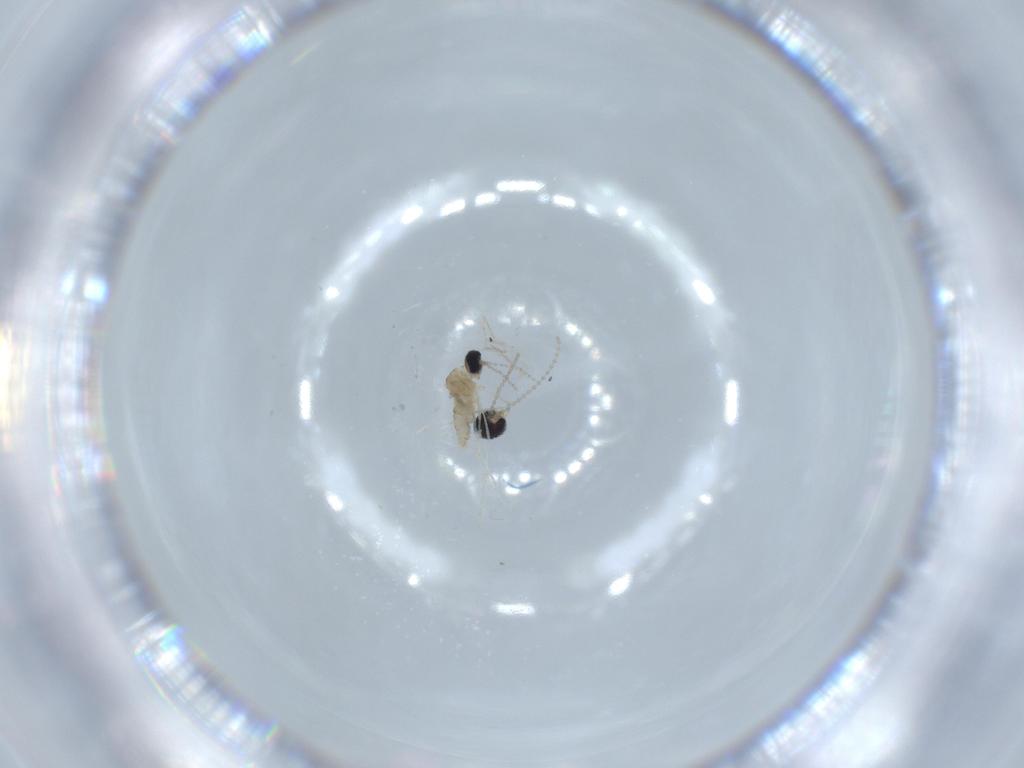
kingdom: Animalia
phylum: Arthropoda
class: Insecta
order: Diptera
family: Cecidomyiidae
